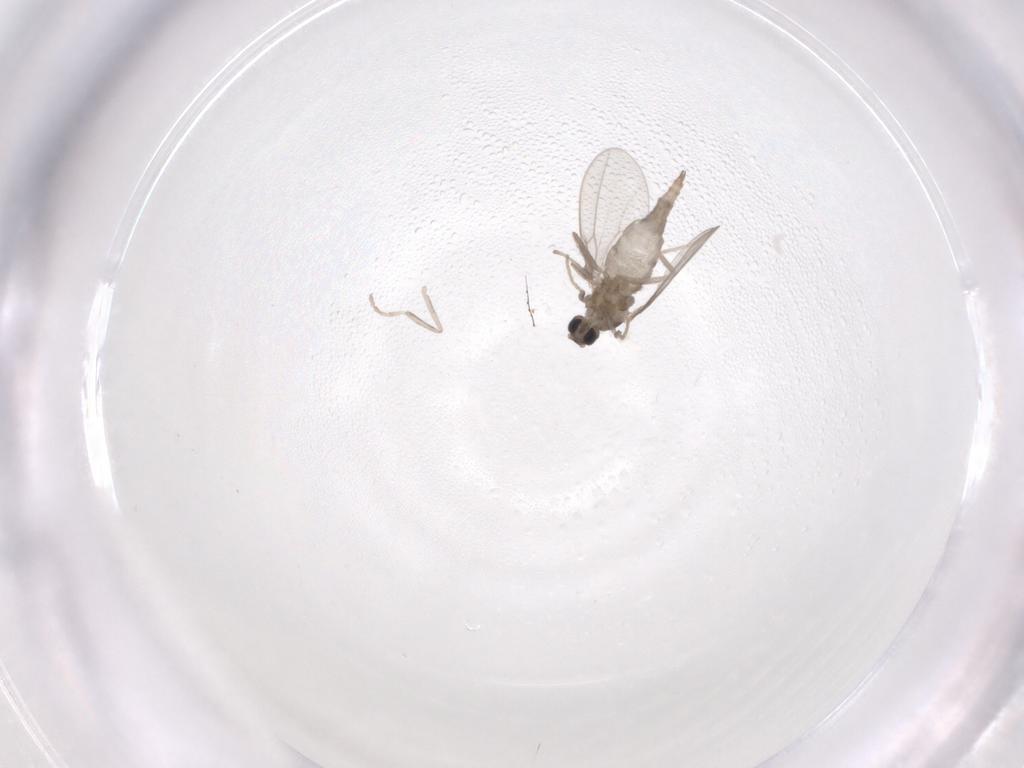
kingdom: Animalia
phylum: Arthropoda
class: Insecta
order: Diptera
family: Cecidomyiidae
